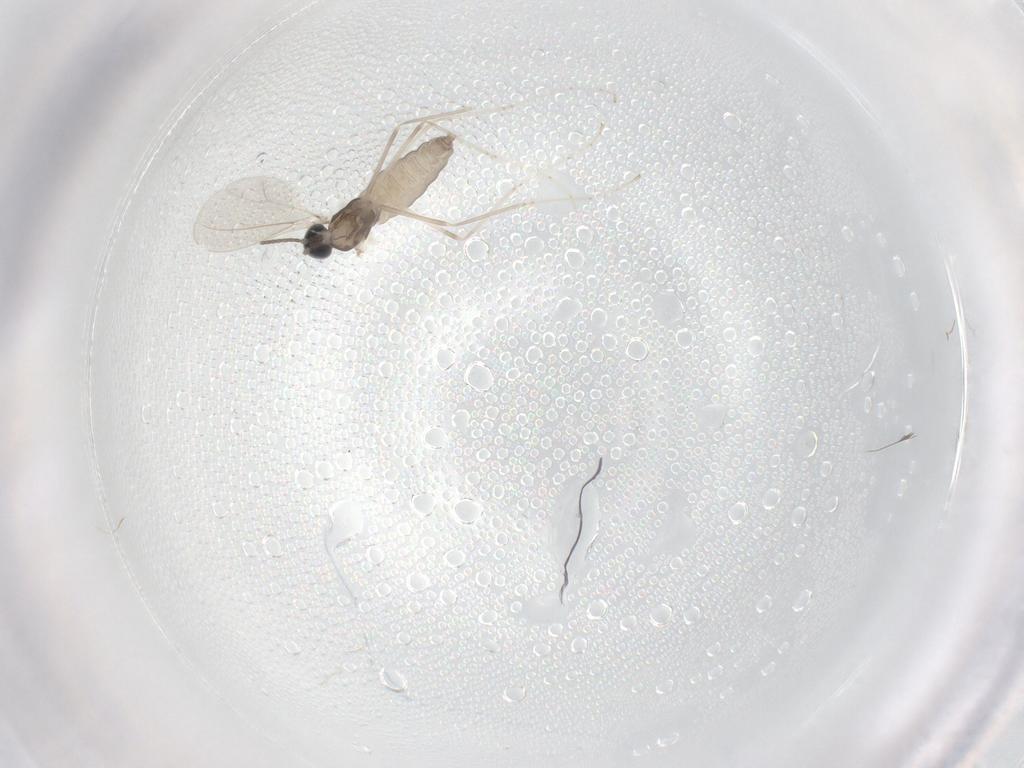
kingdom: Animalia
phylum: Arthropoda
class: Insecta
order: Diptera
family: Cecidomyiidae
